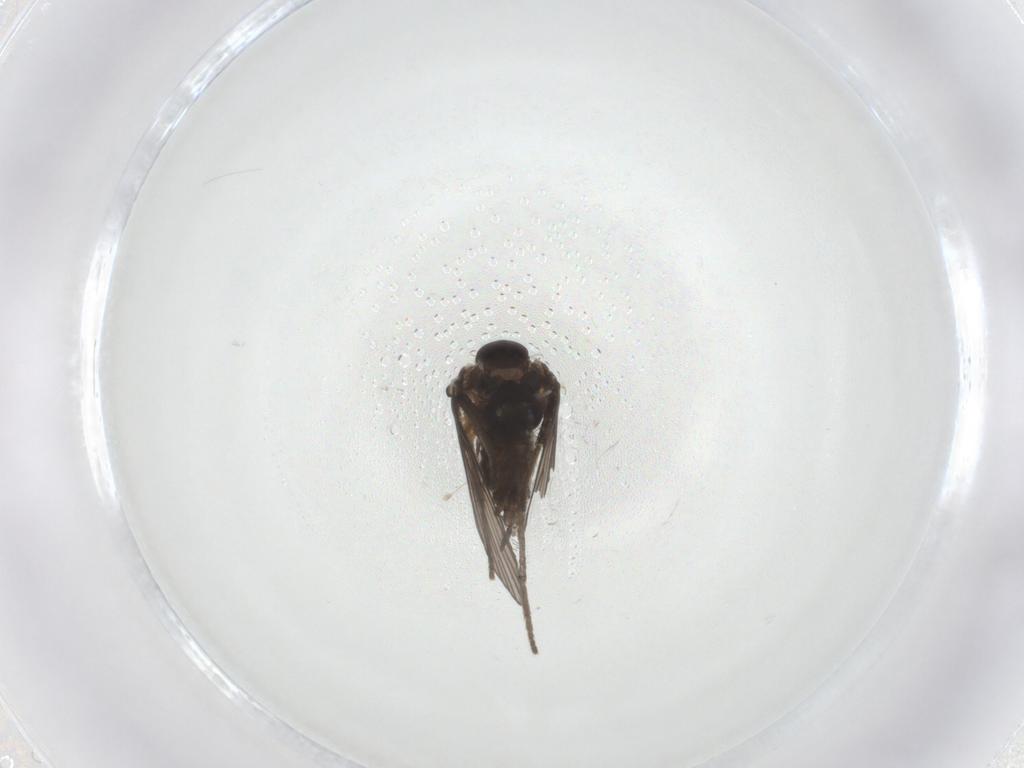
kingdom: Animalia
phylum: Arthropoda
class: Insecta
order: Diptera
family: Psychodidae
